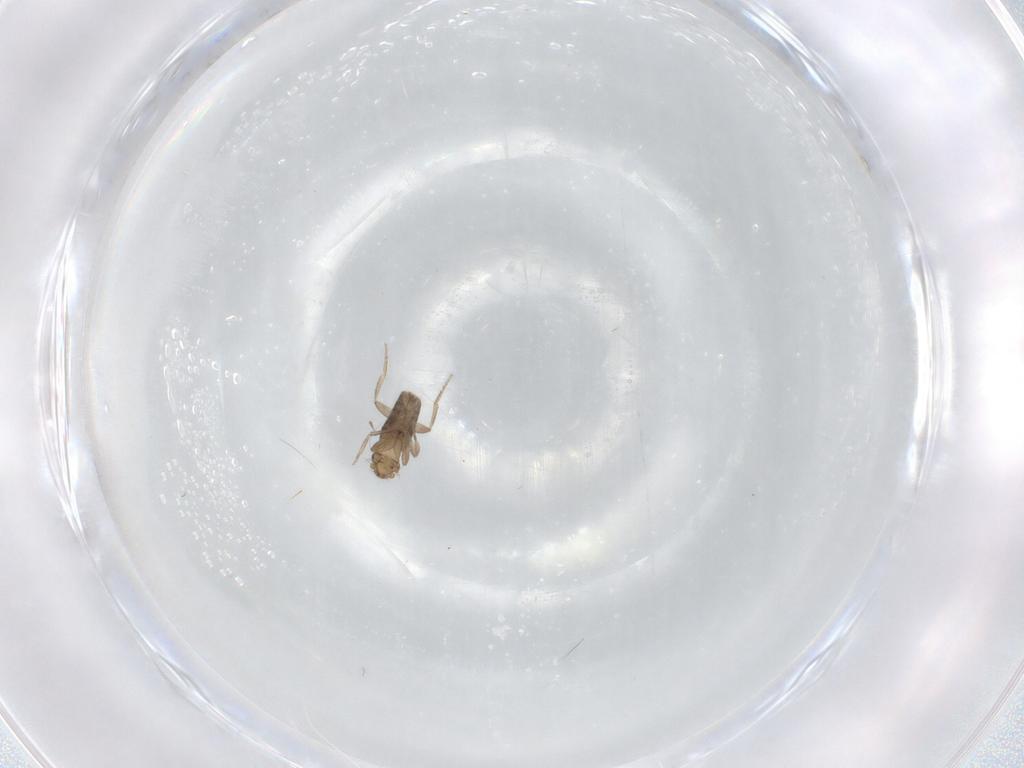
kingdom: Animalia
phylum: Arthropoda
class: Insecta
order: Diptera
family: Phoridae
